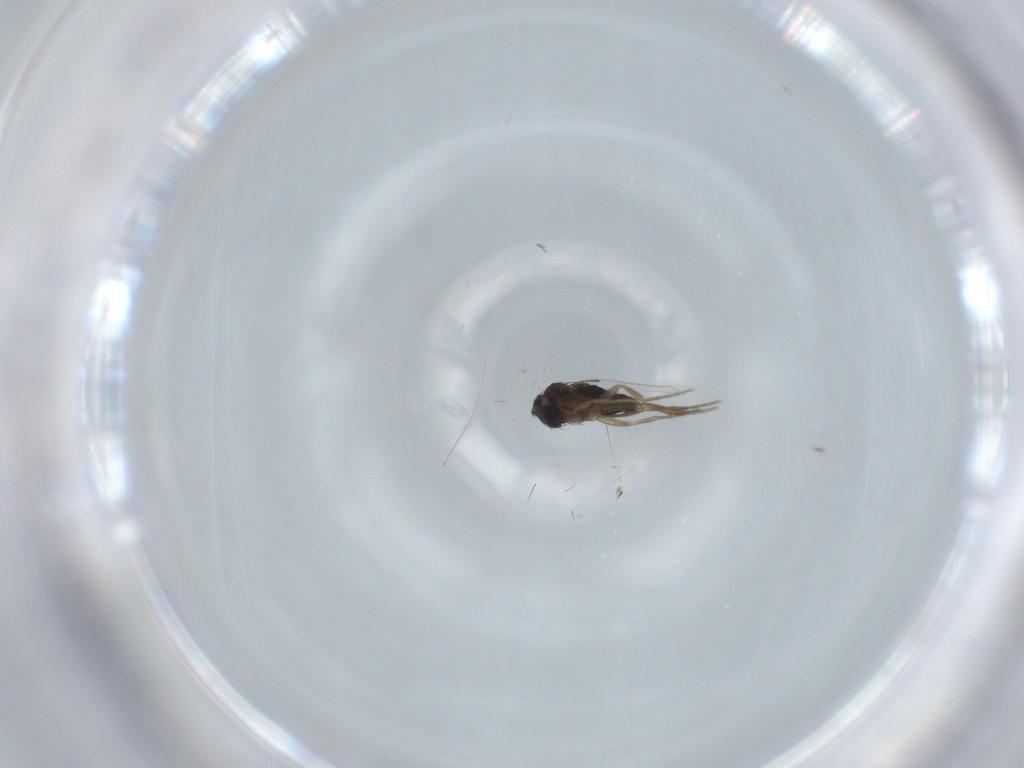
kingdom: Animalia
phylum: Arthropoda
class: Insecta
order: Diptera
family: Phoridae
